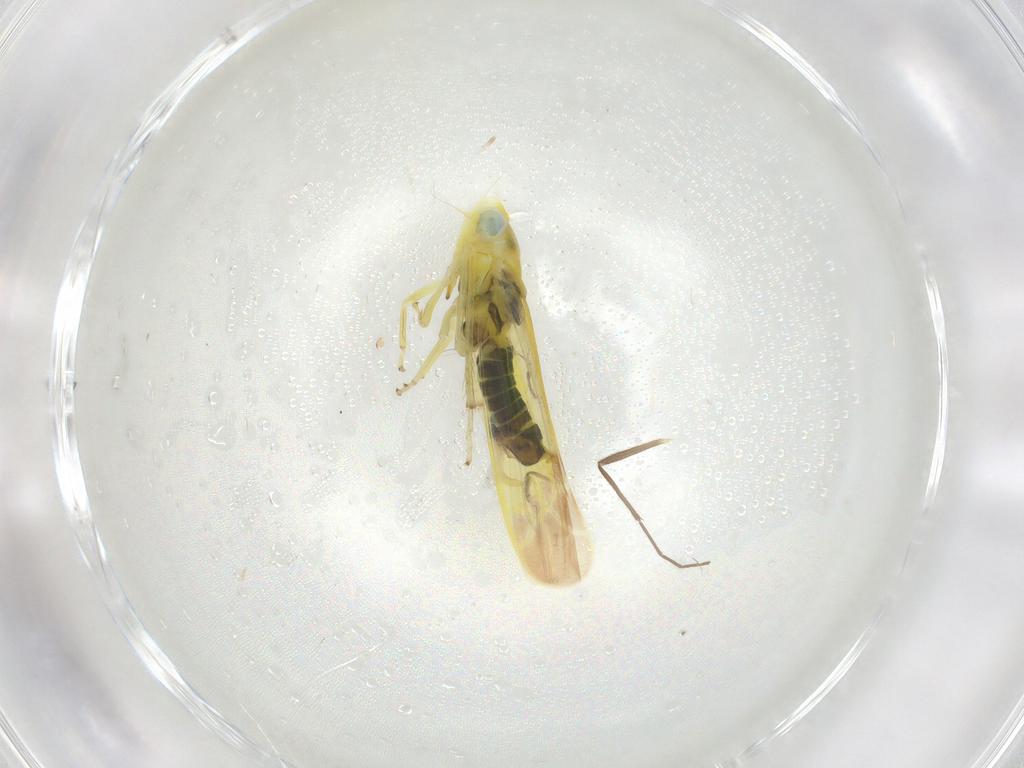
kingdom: Animalia
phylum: Arthropoda
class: Insecta
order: Hemiptera
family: Cicadellidae
